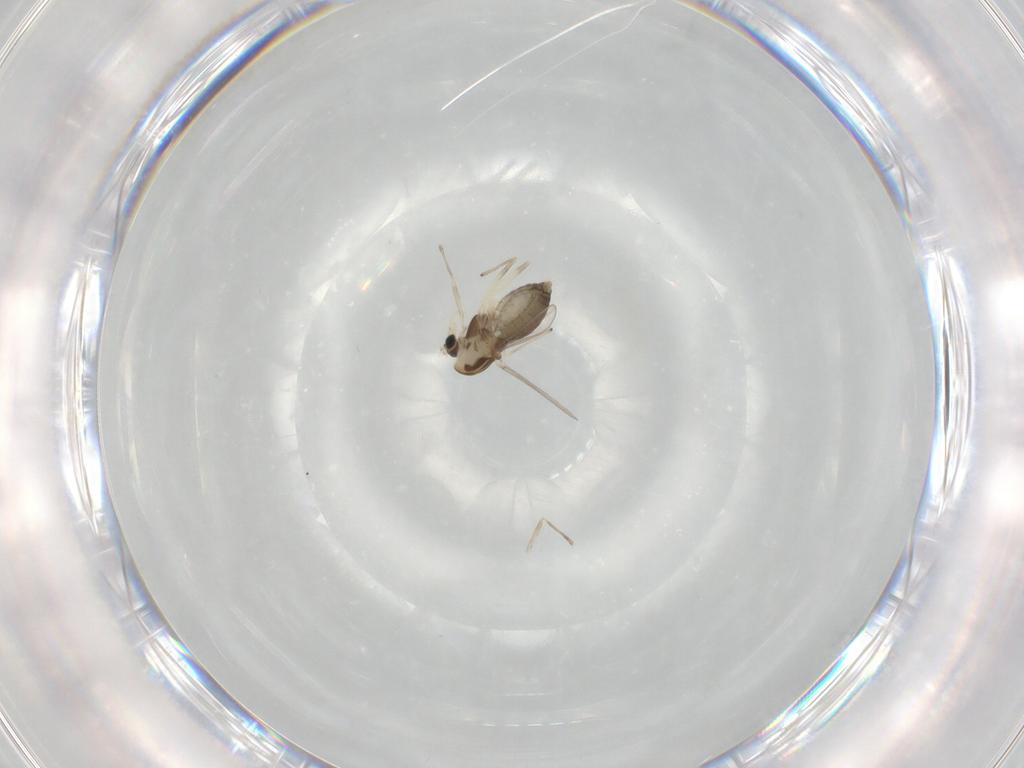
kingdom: Animalia
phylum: Arthropoda
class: Insecta
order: Diptera
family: Chironomidae
